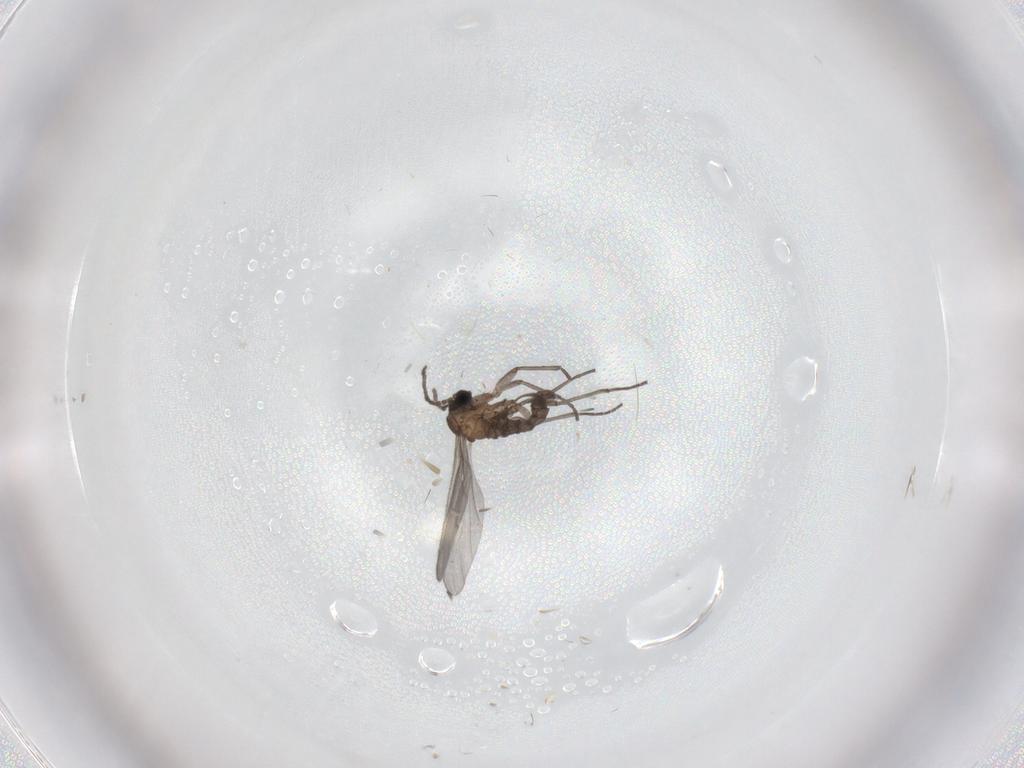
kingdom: Animalia
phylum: Arthropoda
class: Insecta
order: Diptera
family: Sciaridae
